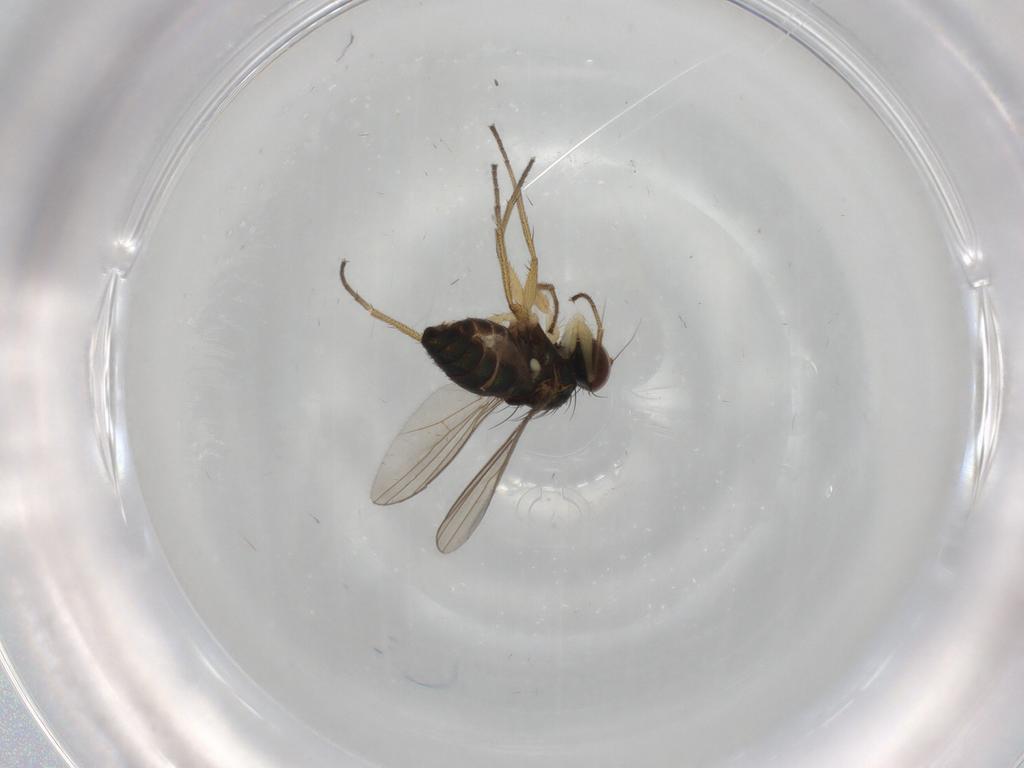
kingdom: Animalia
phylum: Arthropoda
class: Insecta
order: Diptera
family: Dolichopodidae
